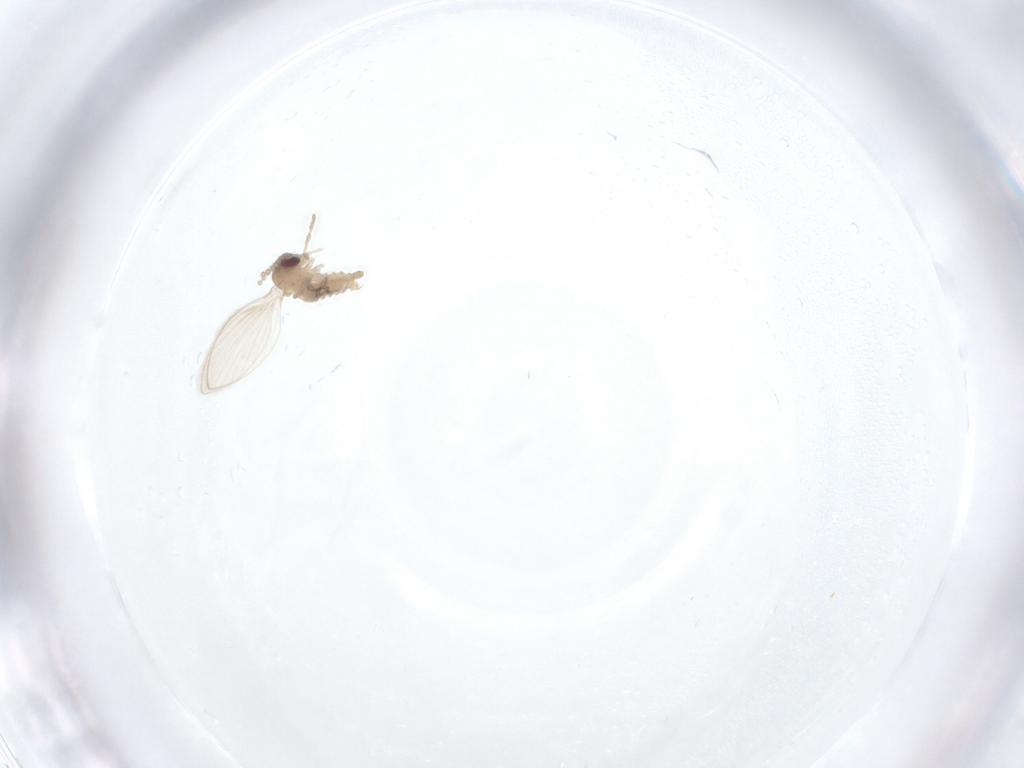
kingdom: Animalia
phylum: Arthropoda
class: Insecta
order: Diptera
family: Psychodidae
